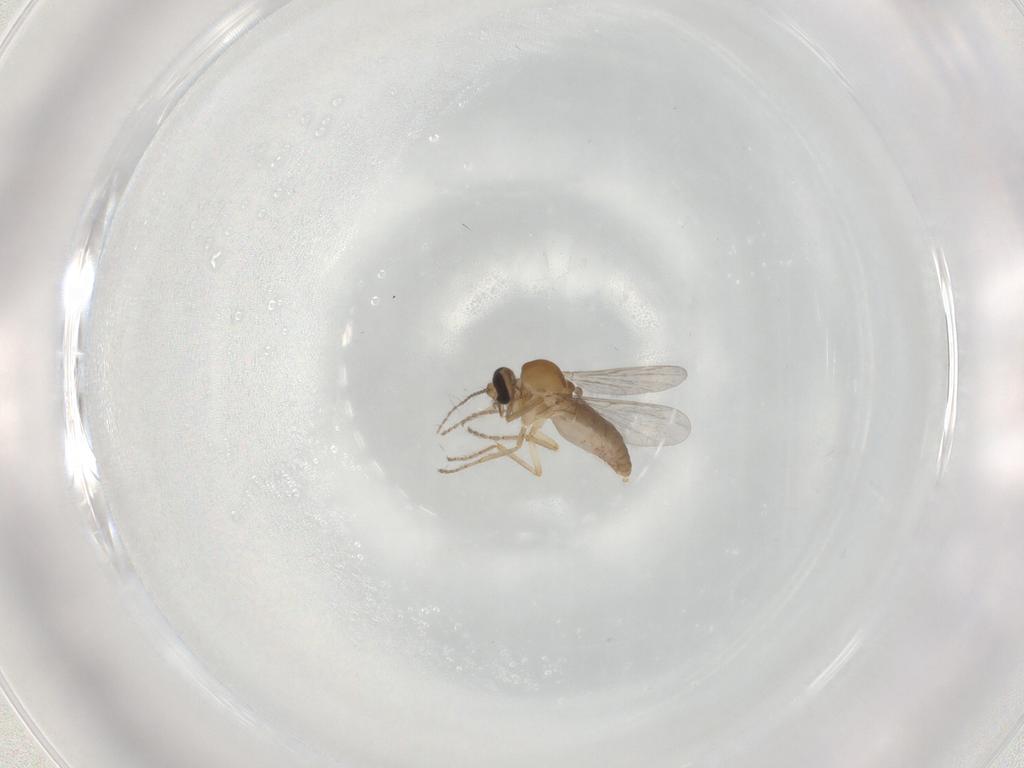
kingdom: Animalia
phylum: Arthropoda
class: Insecta
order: Diptera
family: Ceratopogonidae
